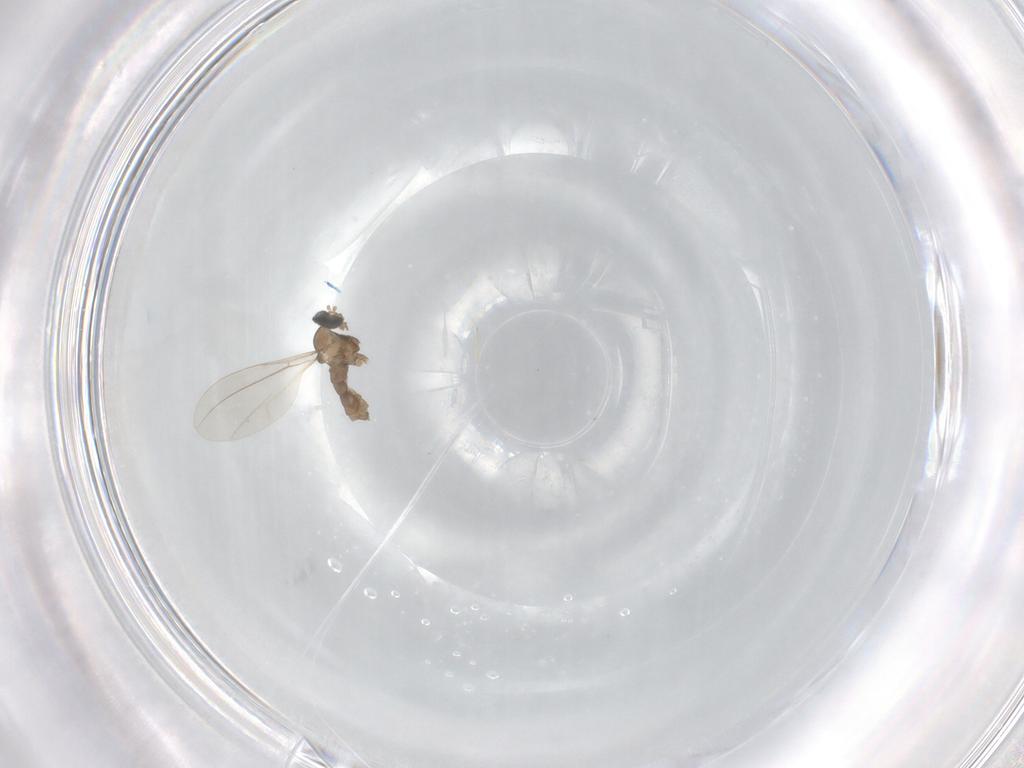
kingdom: Animalia
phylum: Arthropoda
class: Insecta
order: Diptera
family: Cecidomyiidae
